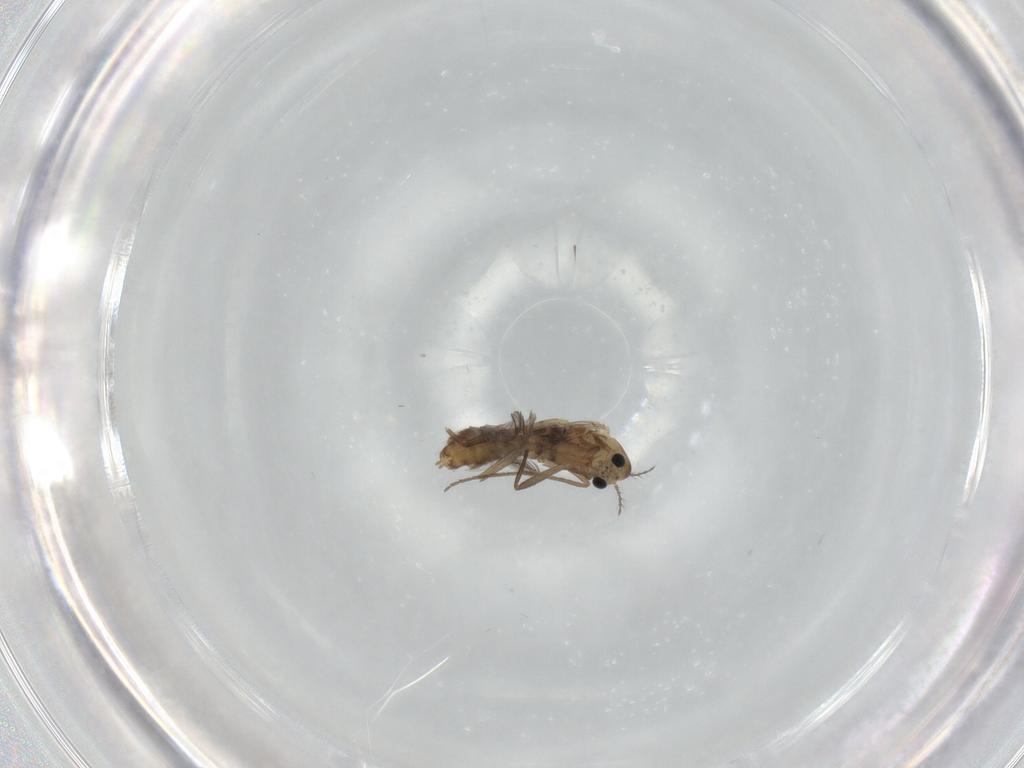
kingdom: Animalia
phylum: Arthropoda
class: Insecta
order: Diptera
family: Chironomidae
